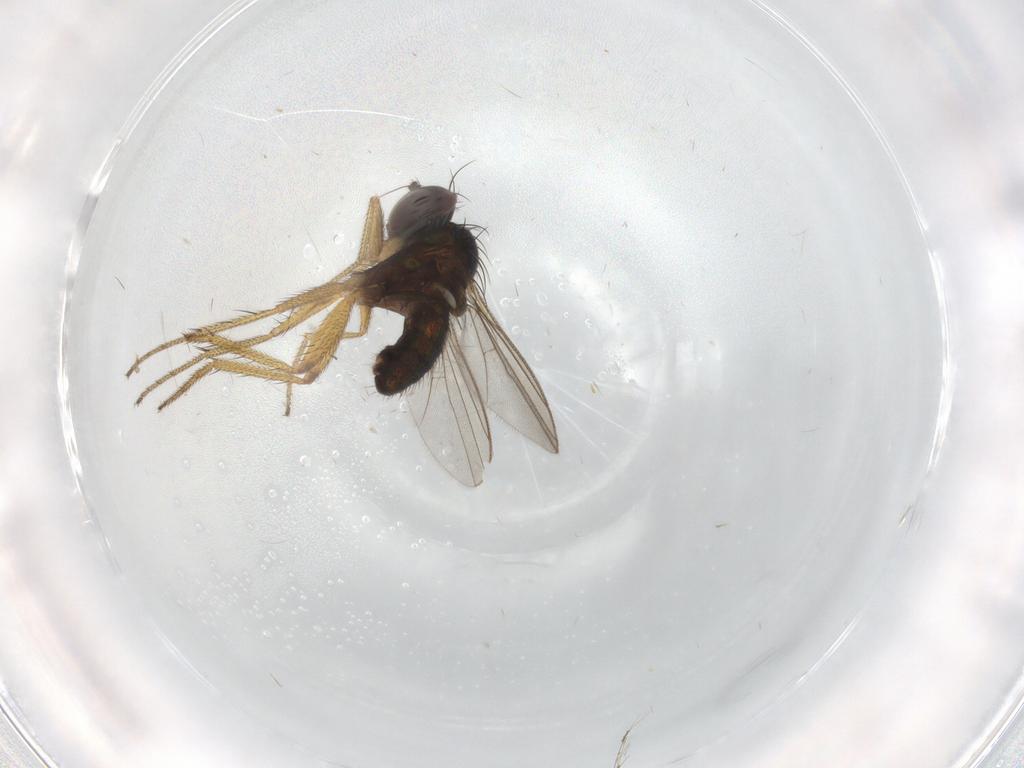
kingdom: Animalia
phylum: Arthropoda
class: Insecta
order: Diptera
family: Dolichopodidae
